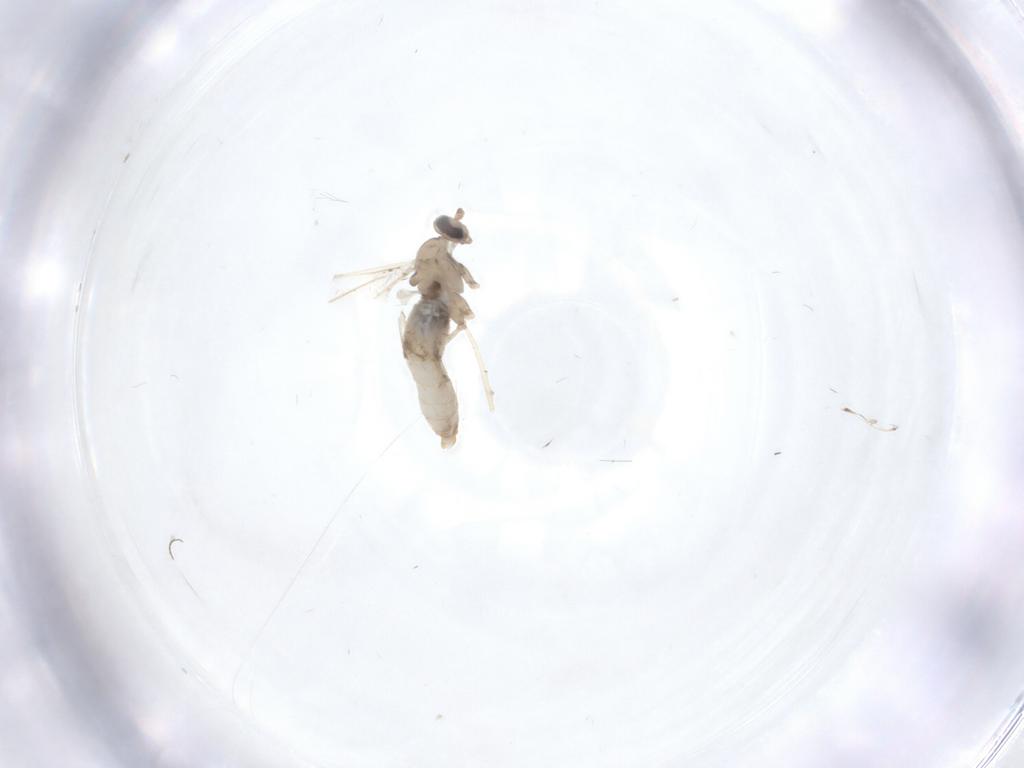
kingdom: Animalia
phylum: Arthropoda
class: Insecta
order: Diptera
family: Cecidomyiidae
